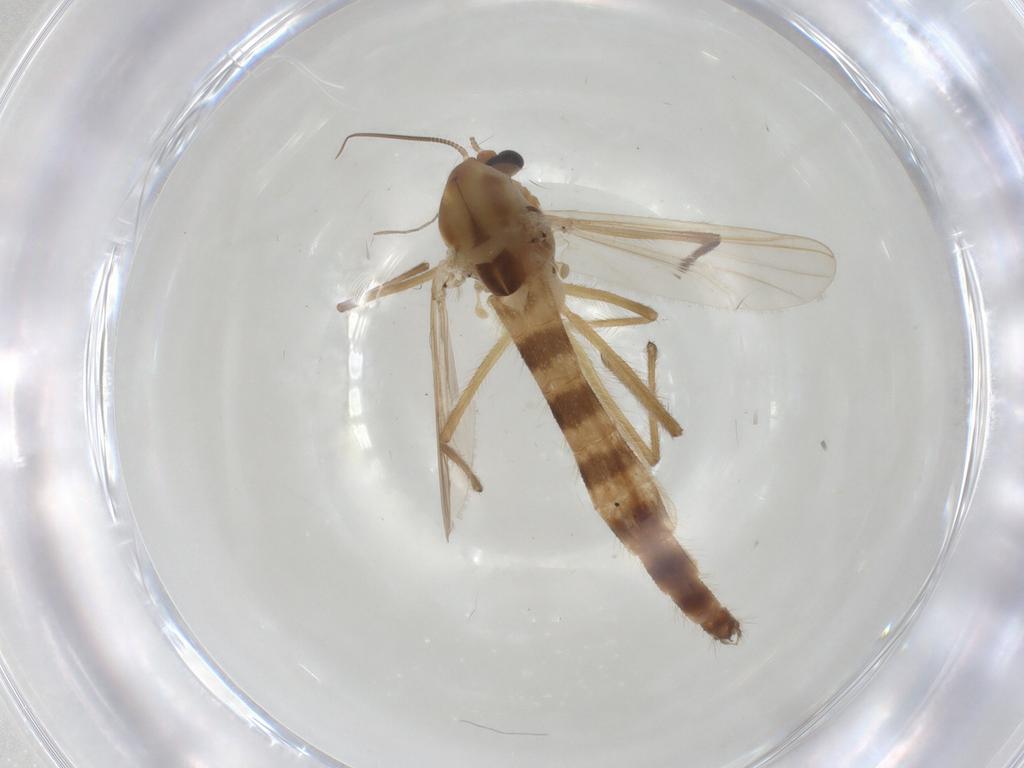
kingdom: Animalia
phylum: Arthropoda
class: Insecta
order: Diptera
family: Chironomidae
